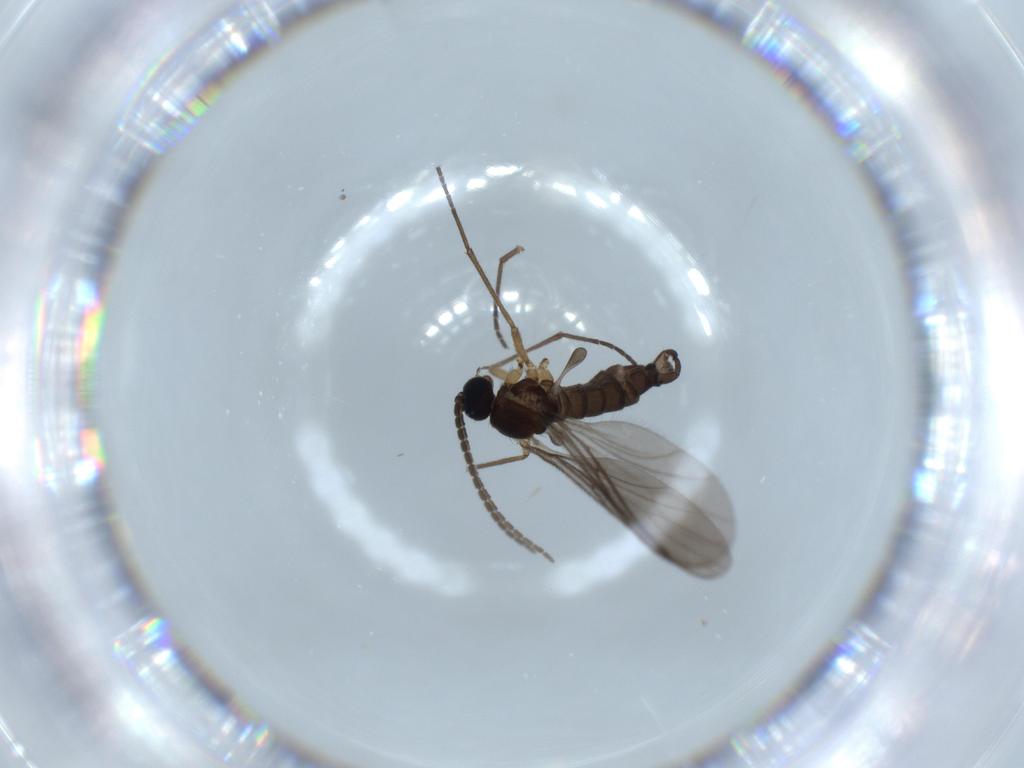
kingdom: Animalia
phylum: Arthropoda
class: Insecta
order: Diptera
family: Sciaridae
